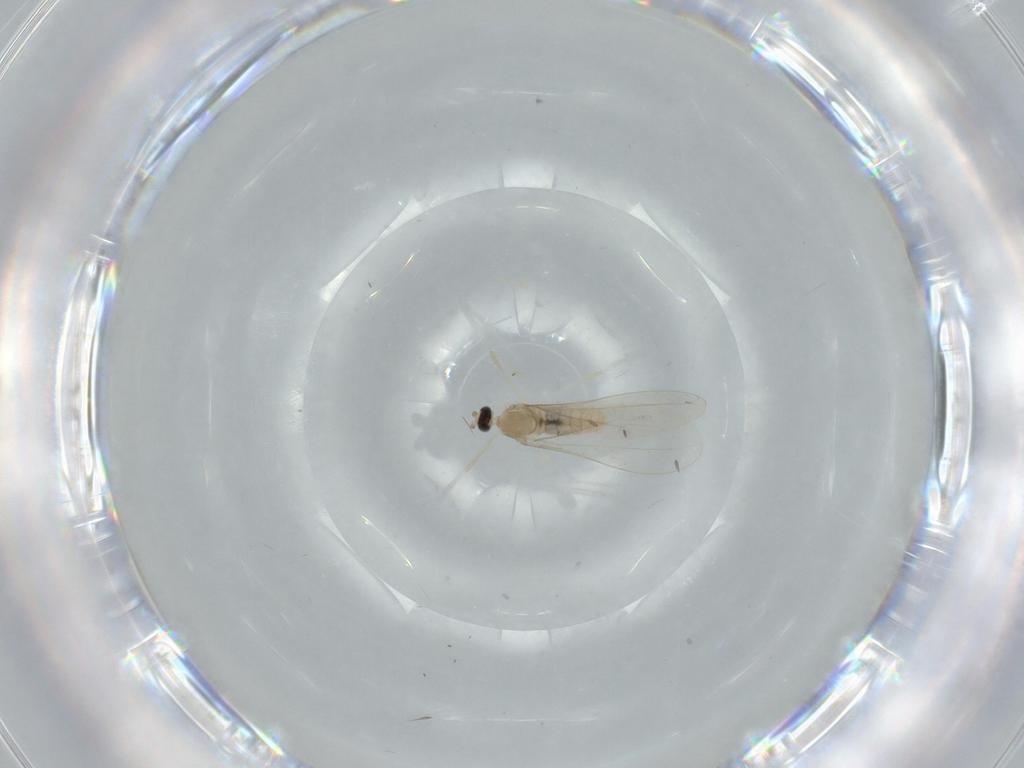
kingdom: Animalia
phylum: Arthropoda
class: Insecta
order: Diptera
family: Cecidomyiidae
